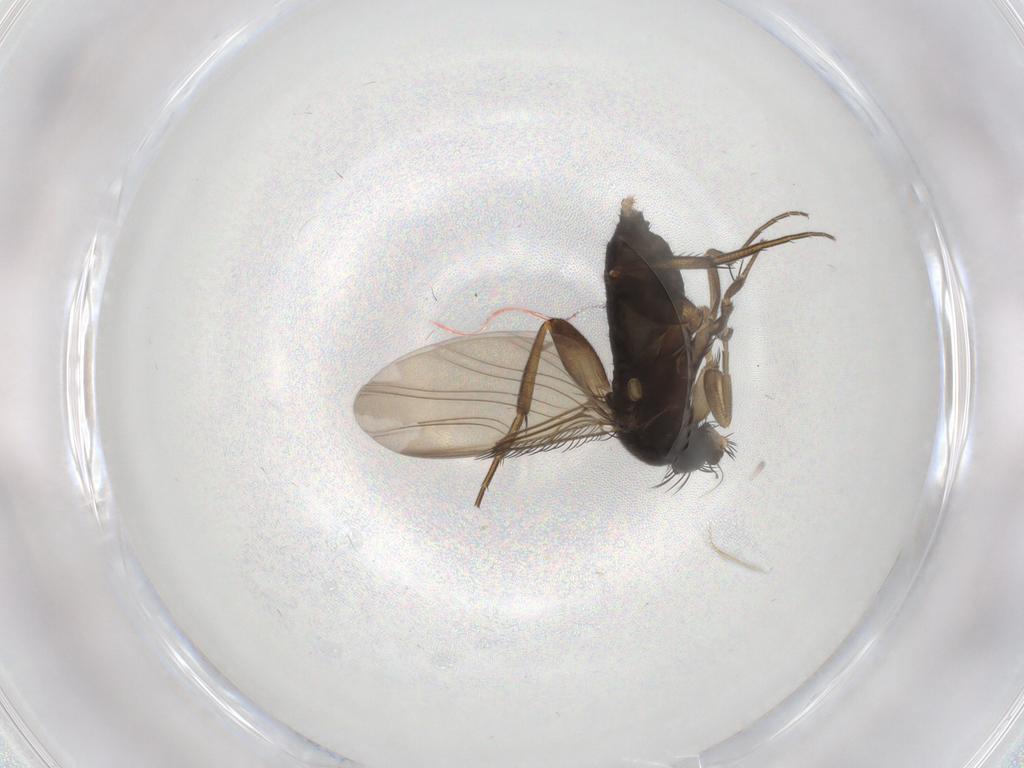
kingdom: Animalia
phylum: Arthropoda
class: Insecta
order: Diptera
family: Phoridae
